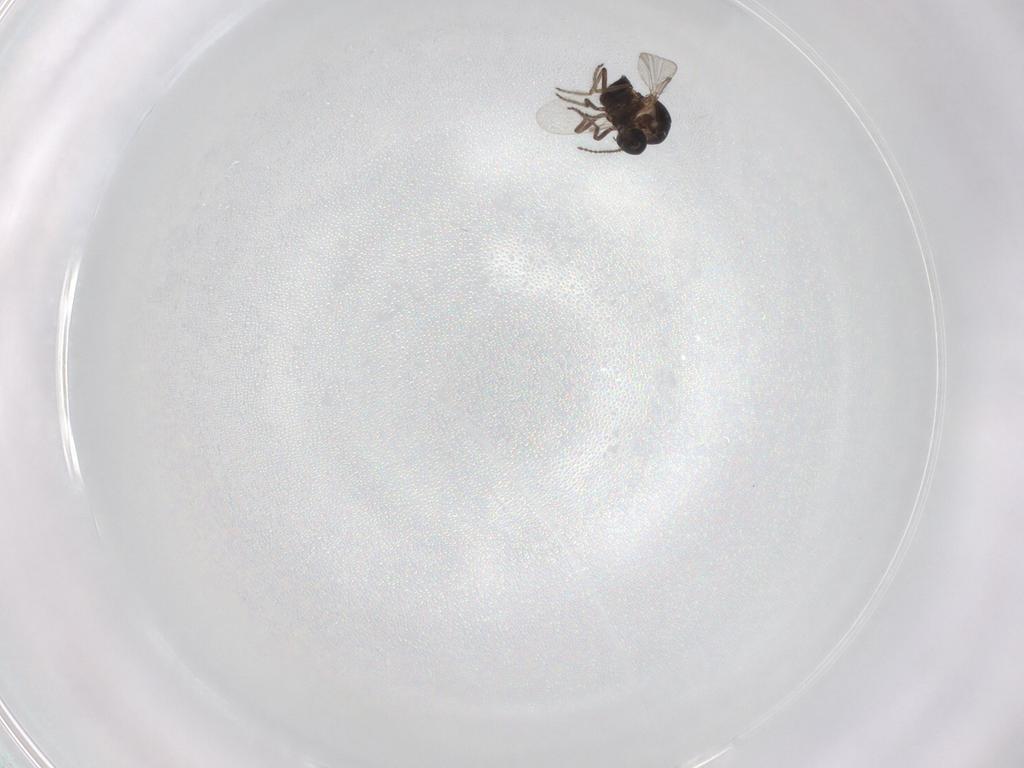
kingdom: Animalia
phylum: Arthropoda
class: Insecta
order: Diptera
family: Ceratopogonidae
